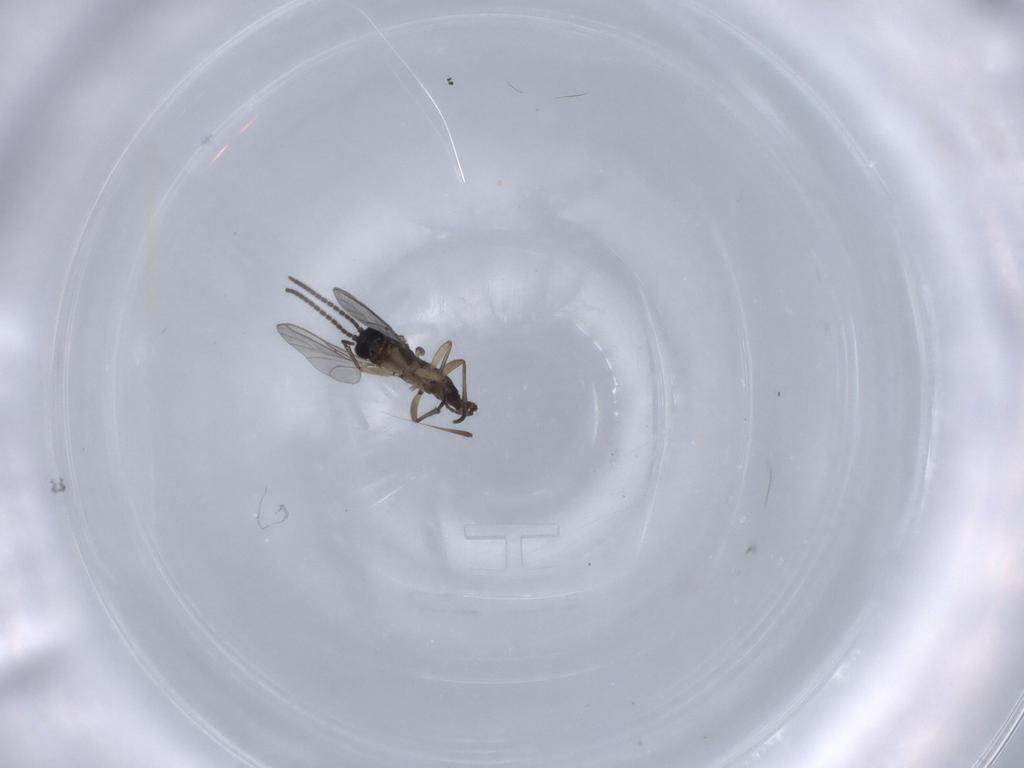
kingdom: Animalia
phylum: Arthropoda
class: Insecta
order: Diptera
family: Sciaridae
